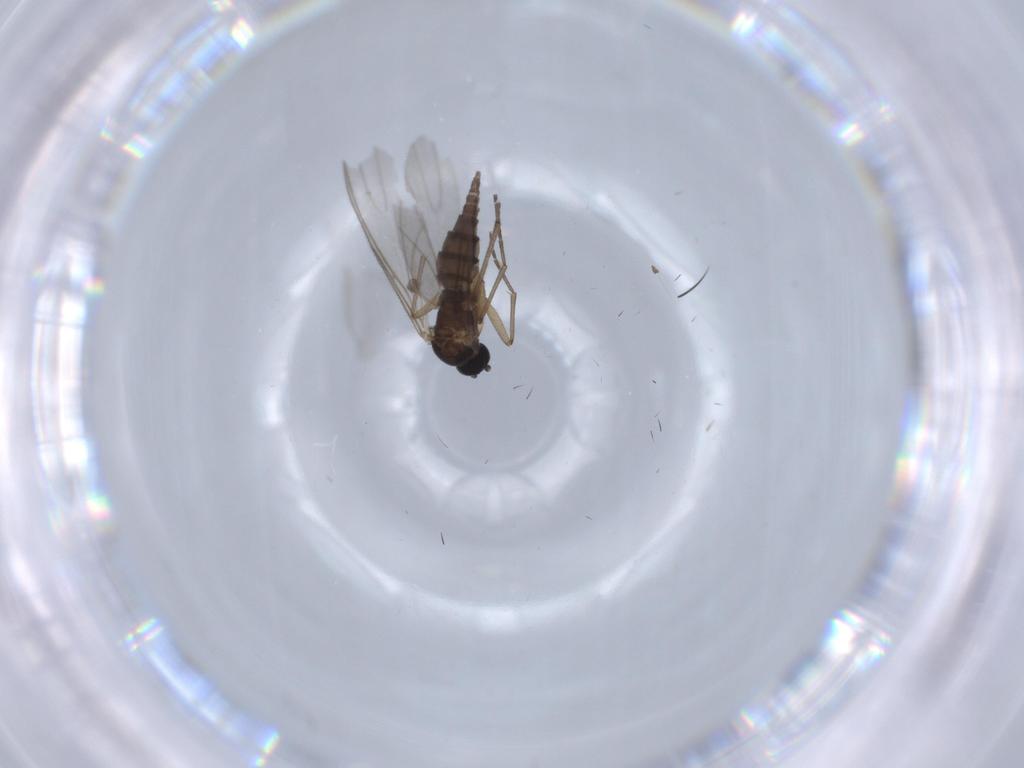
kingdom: Animalia
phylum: Arthropoda
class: Insecta
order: Diptera
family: Sciaridae
